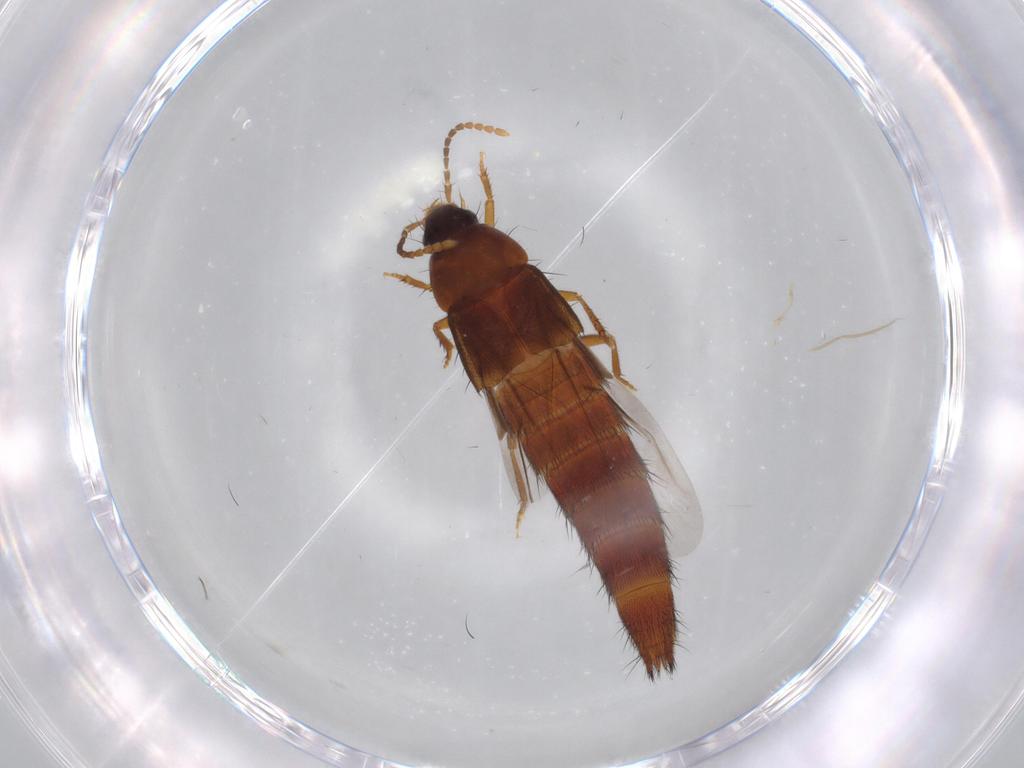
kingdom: Animalia
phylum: Arthropoda
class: Insecta
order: Coleoptera
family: Staphylinidae
